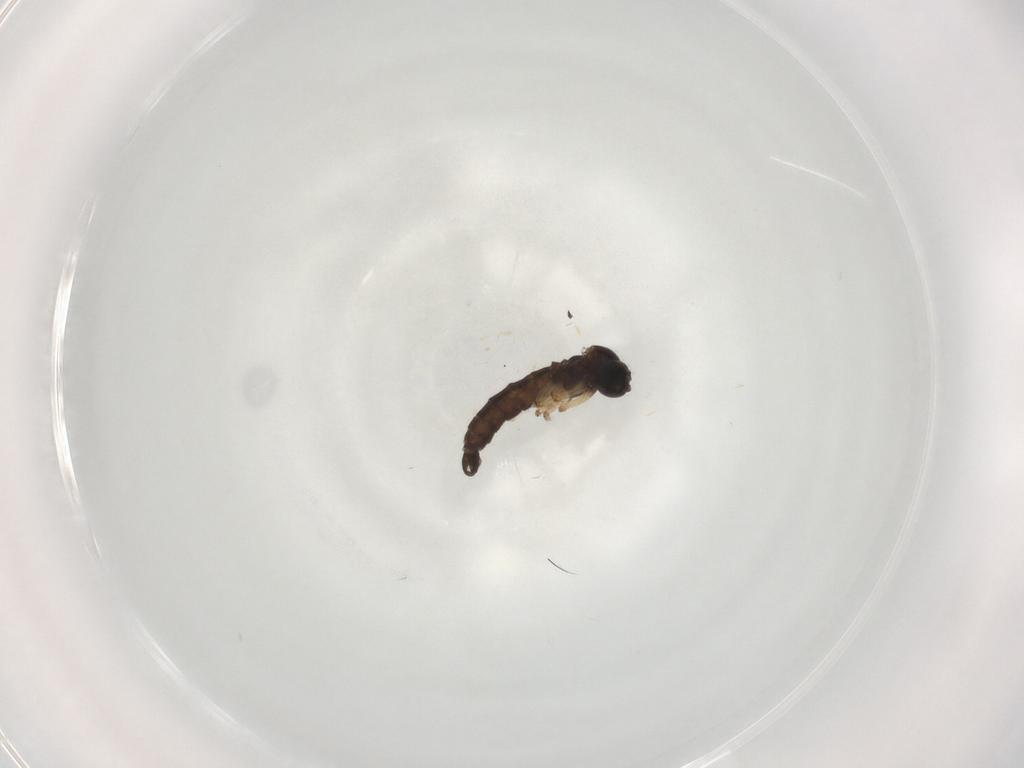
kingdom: Animalia
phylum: Arthropoda
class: Insecta
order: Diptera
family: Sciaridae
